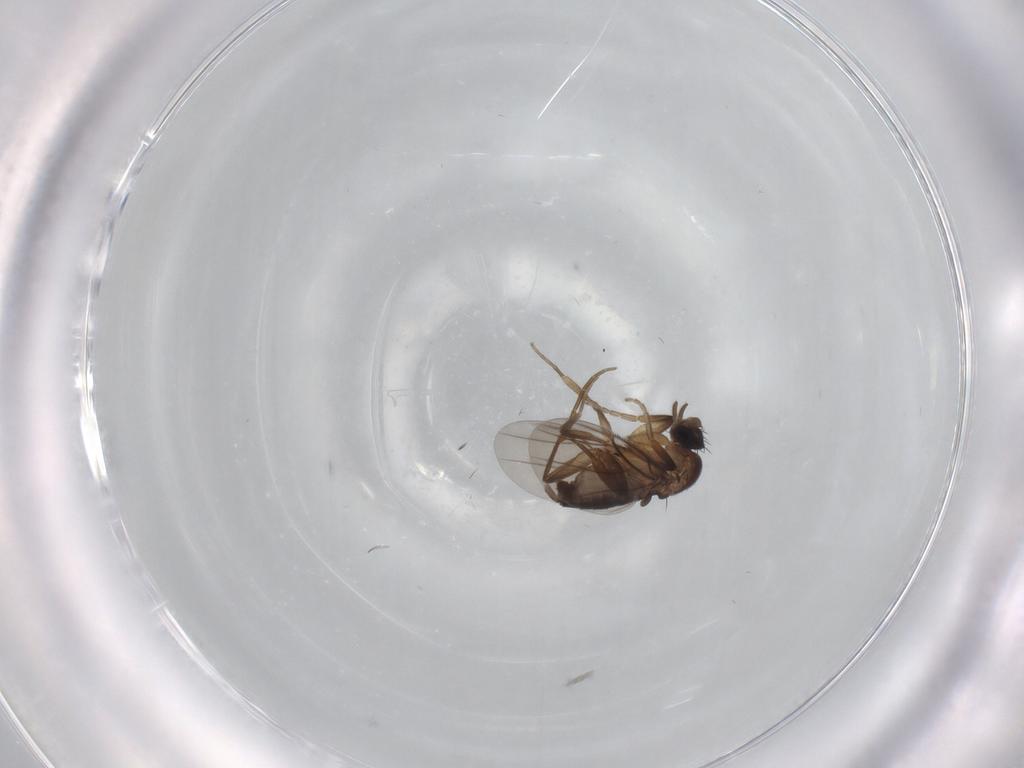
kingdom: Animalia
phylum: Arthropoda
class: Insecta
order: Diptera
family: Phoridae
